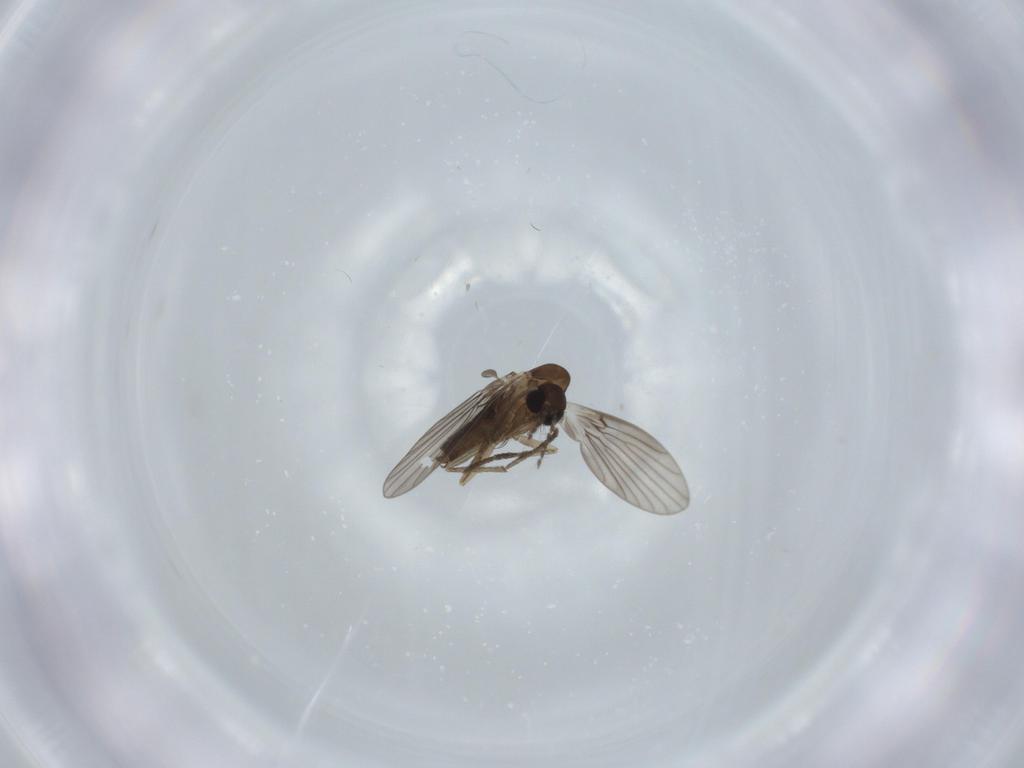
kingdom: Animalia
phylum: Arthropoda
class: Insecta
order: Diptera
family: Psychodidae
